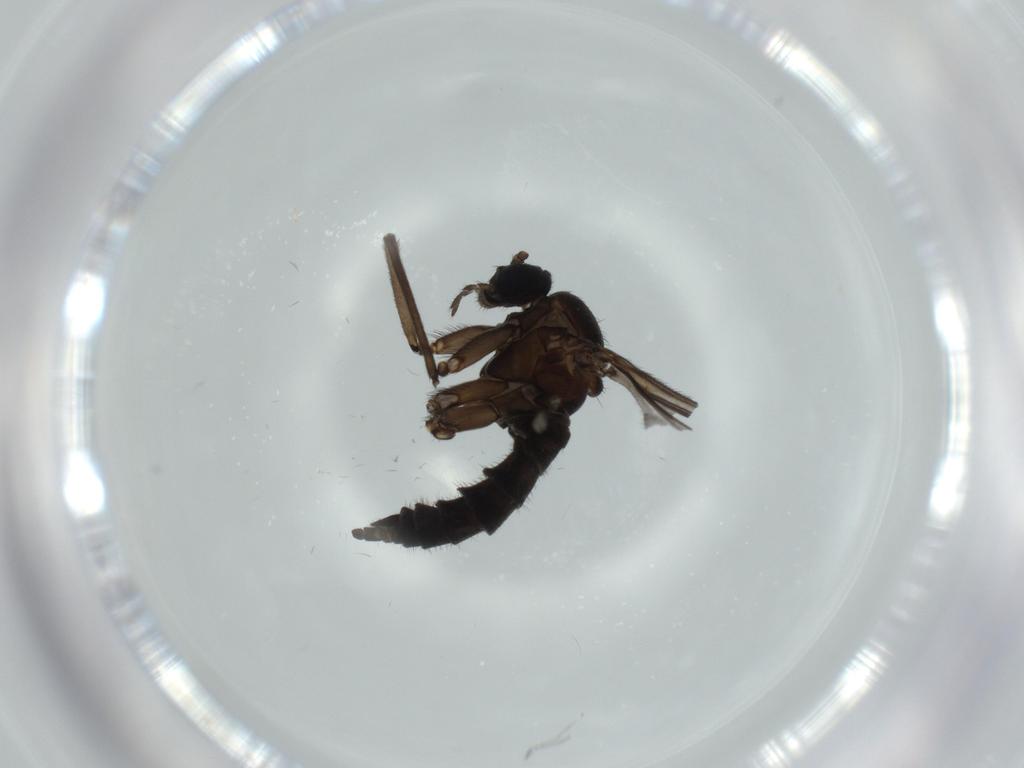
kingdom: Animalia
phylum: Arthropoda
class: Insecta
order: Diptera
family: Sciaridae
